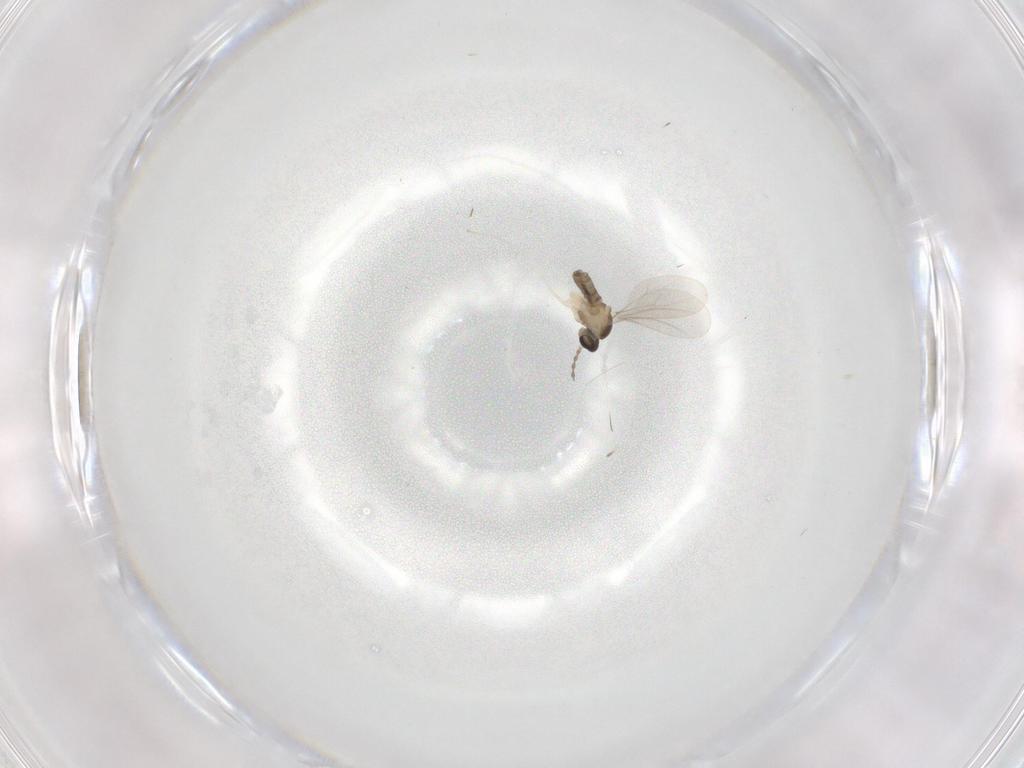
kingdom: Animalia
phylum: Arthropoda
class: Insecta
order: Diptera
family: Cecidomyiidae
